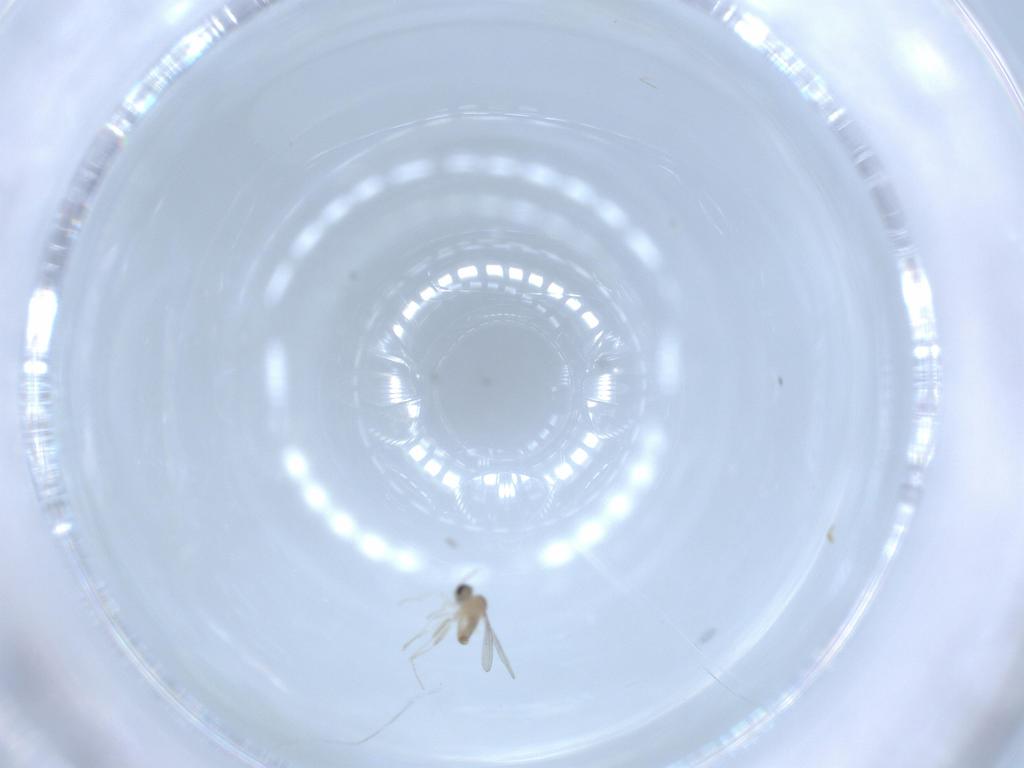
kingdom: Animalia
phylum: Arthropoda
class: Insecta
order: Diptera
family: Cecidomyiidae
